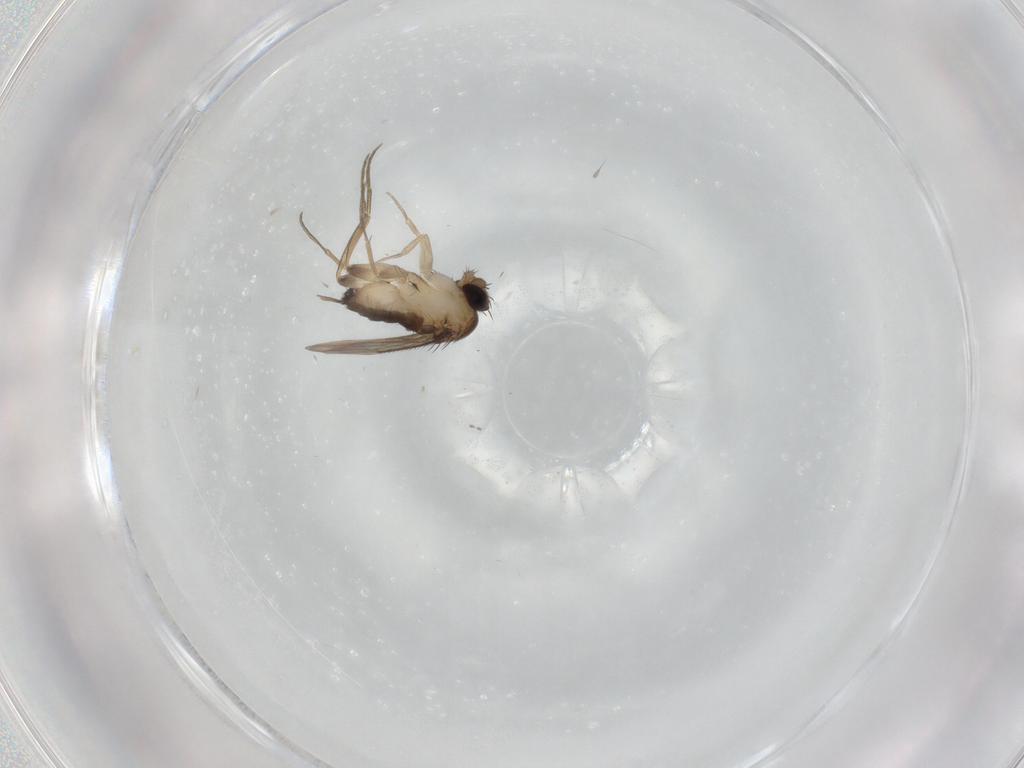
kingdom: Animalia
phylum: Arthropoda
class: Insecta
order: Diptera
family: Phoridae
